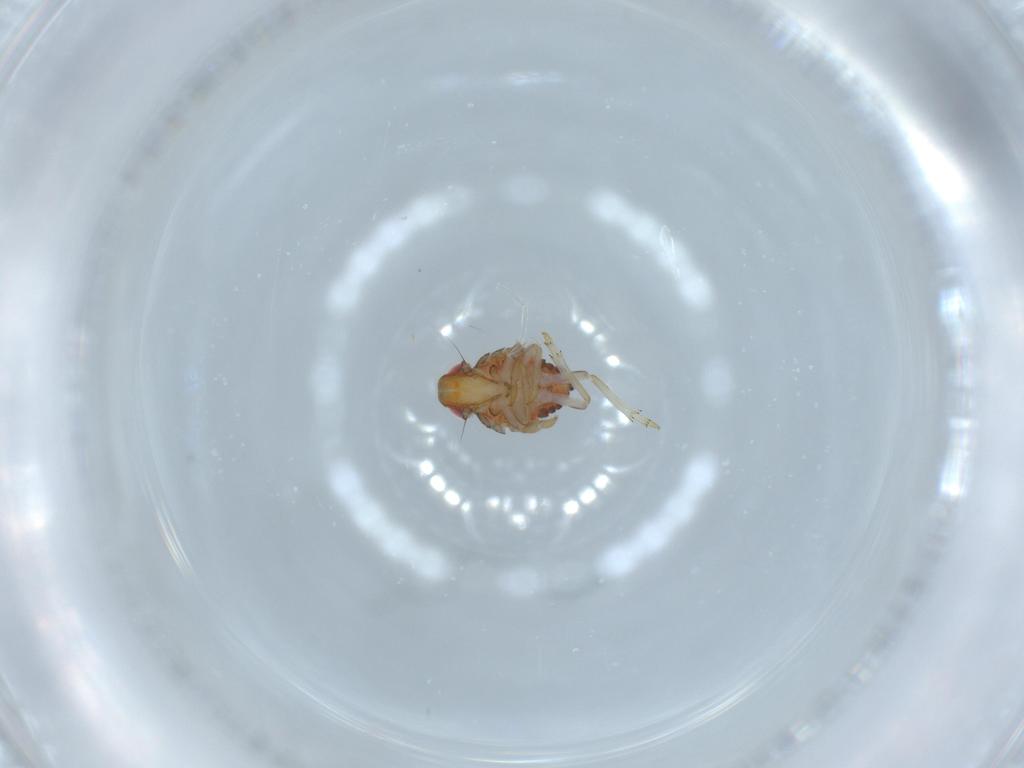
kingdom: Animalia
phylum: Arthropoda
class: Insecta
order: Hemiptera
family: Issidae
